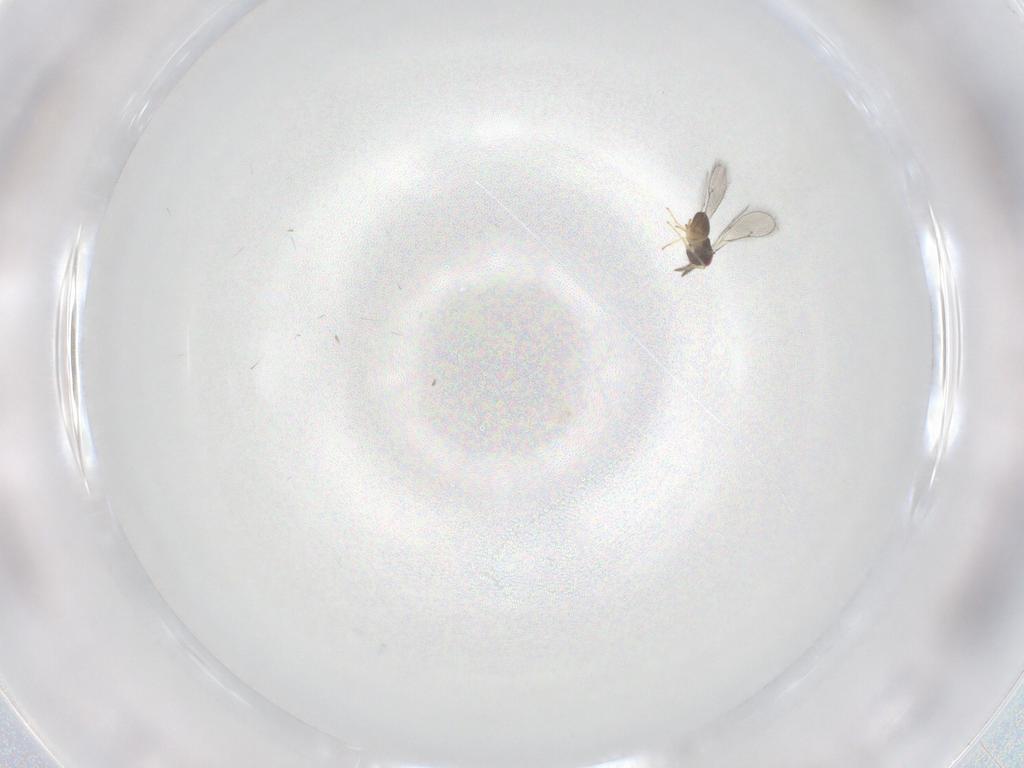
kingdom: Animalia
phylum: Arthropoda
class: Insecta
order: Hymenoptera
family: Eulophidae
